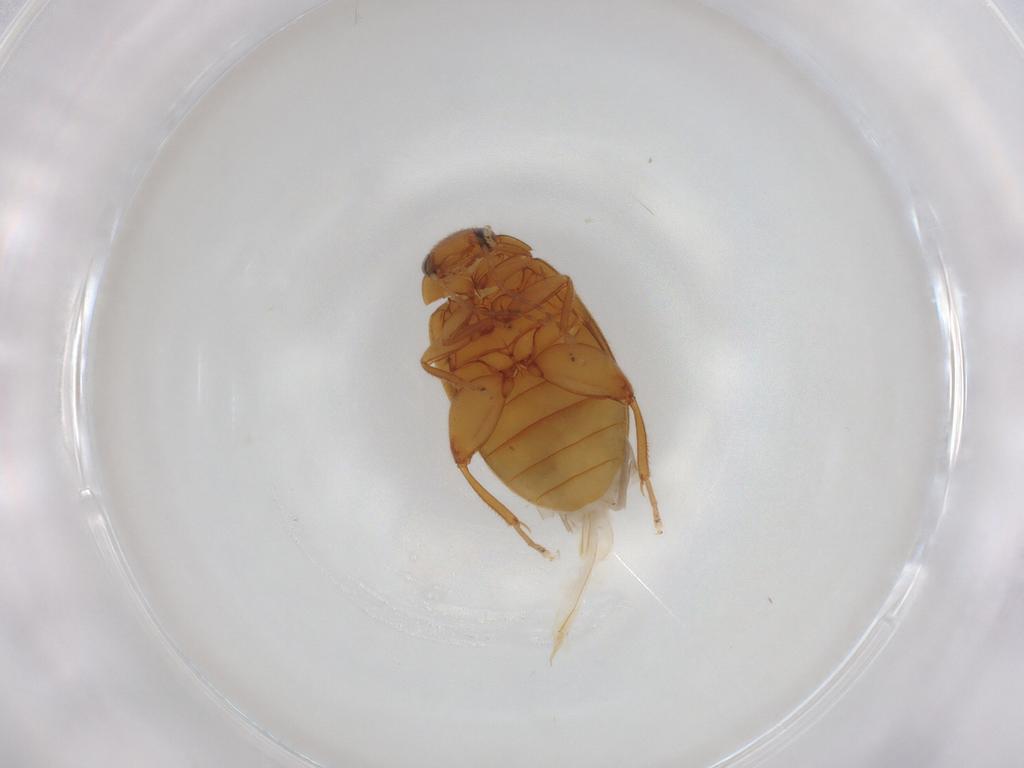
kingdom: Animalia
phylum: Arthropoda
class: Insecta
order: Coleoptera
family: Scirtidae
